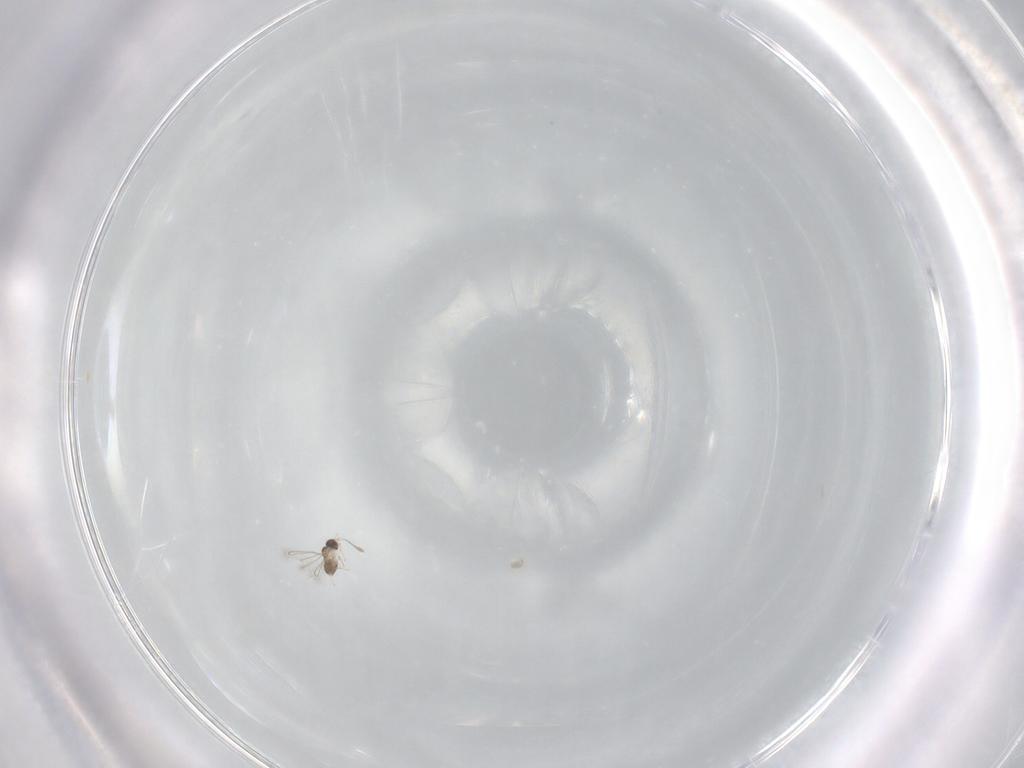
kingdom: Animalia
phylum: Arthropoda
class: Insecta
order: Hymenoptera
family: Mymaridae
